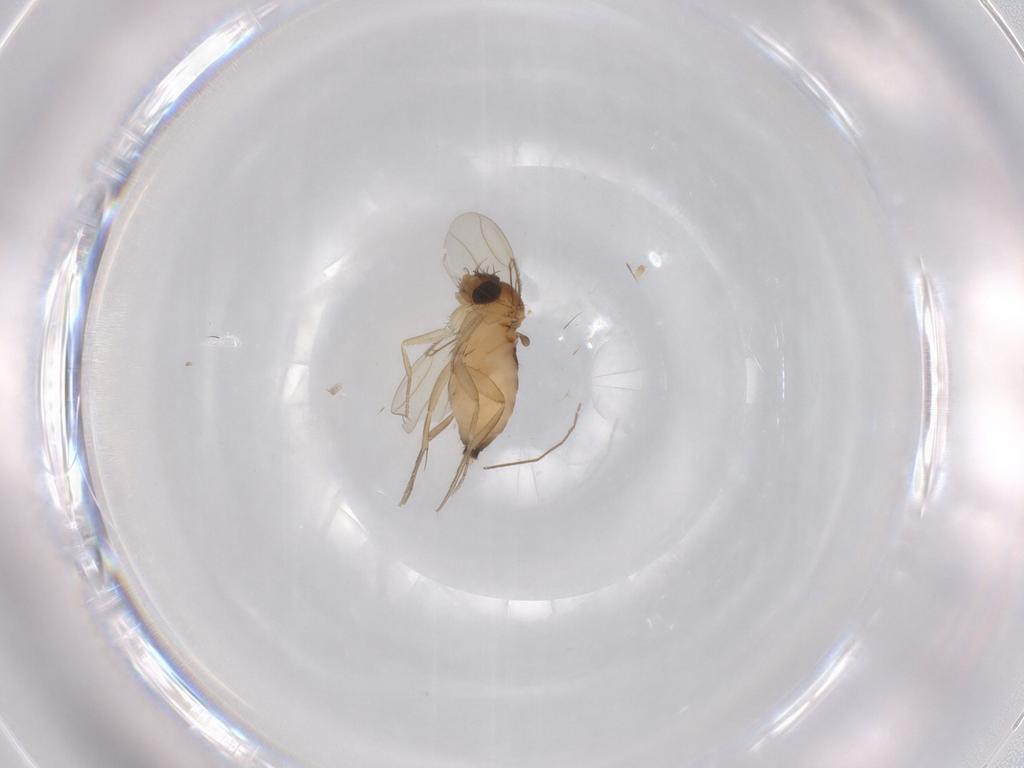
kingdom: Animalia
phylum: Arthropoda
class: Insecta
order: Diptera
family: Phoridae
